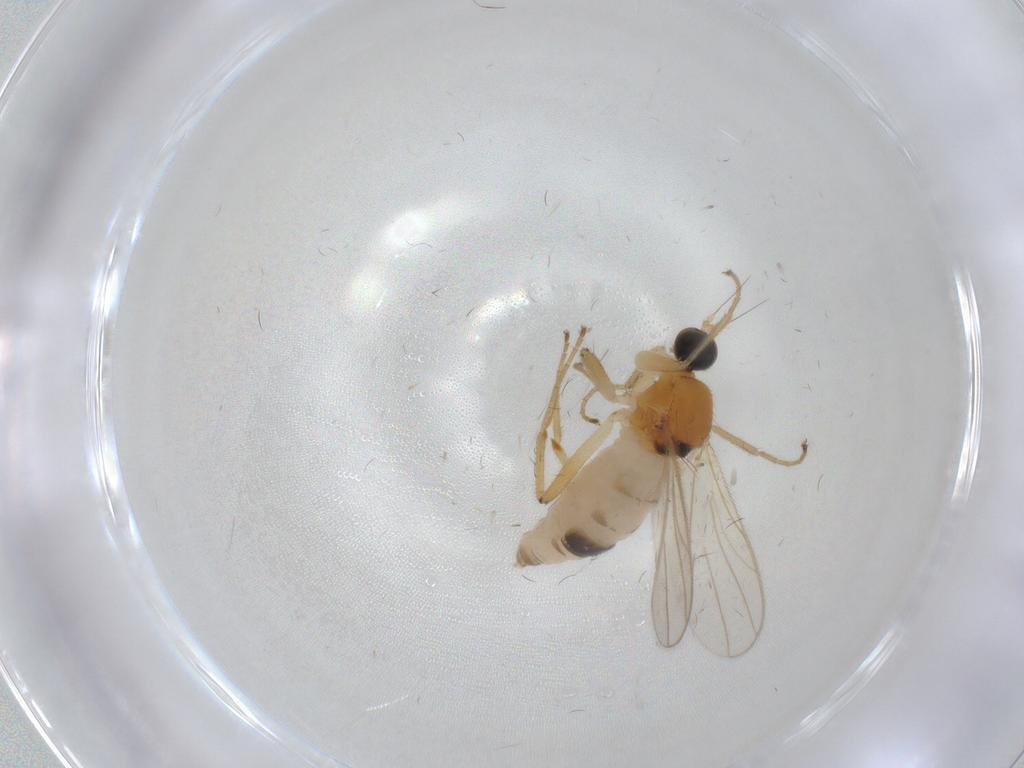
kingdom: Animalia
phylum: Arthropoda
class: Insecta
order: Diptera
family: Hybotidae
